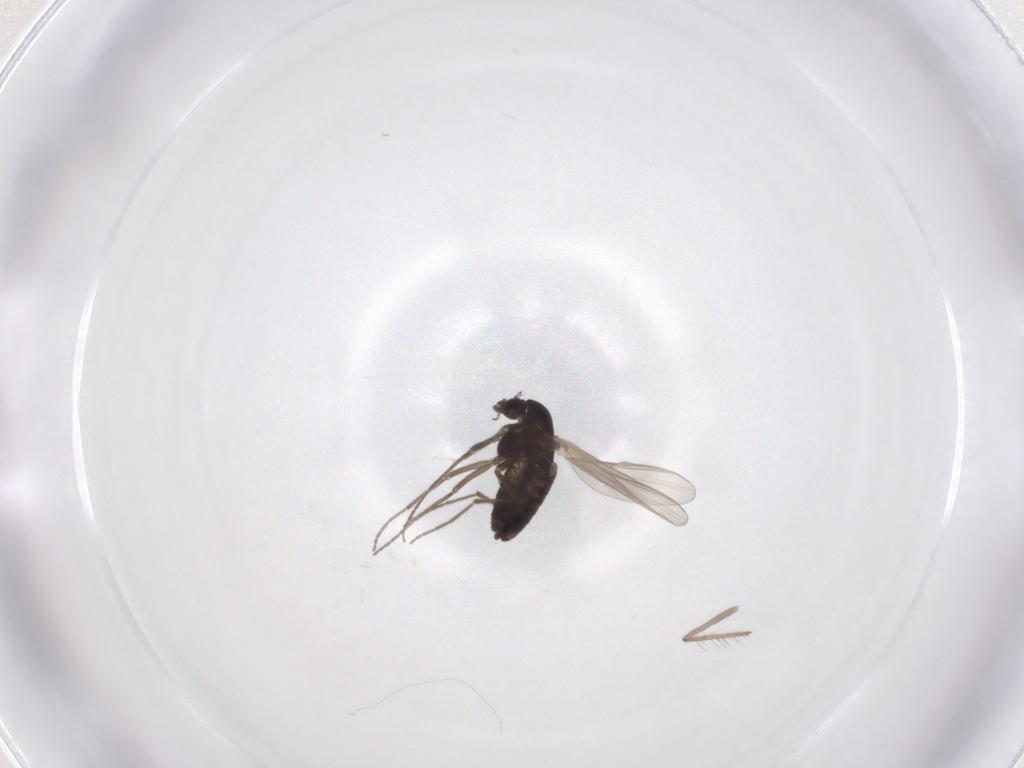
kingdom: Animalia
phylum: Arthropoda
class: Insecta
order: Diptera
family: Chironomidae
